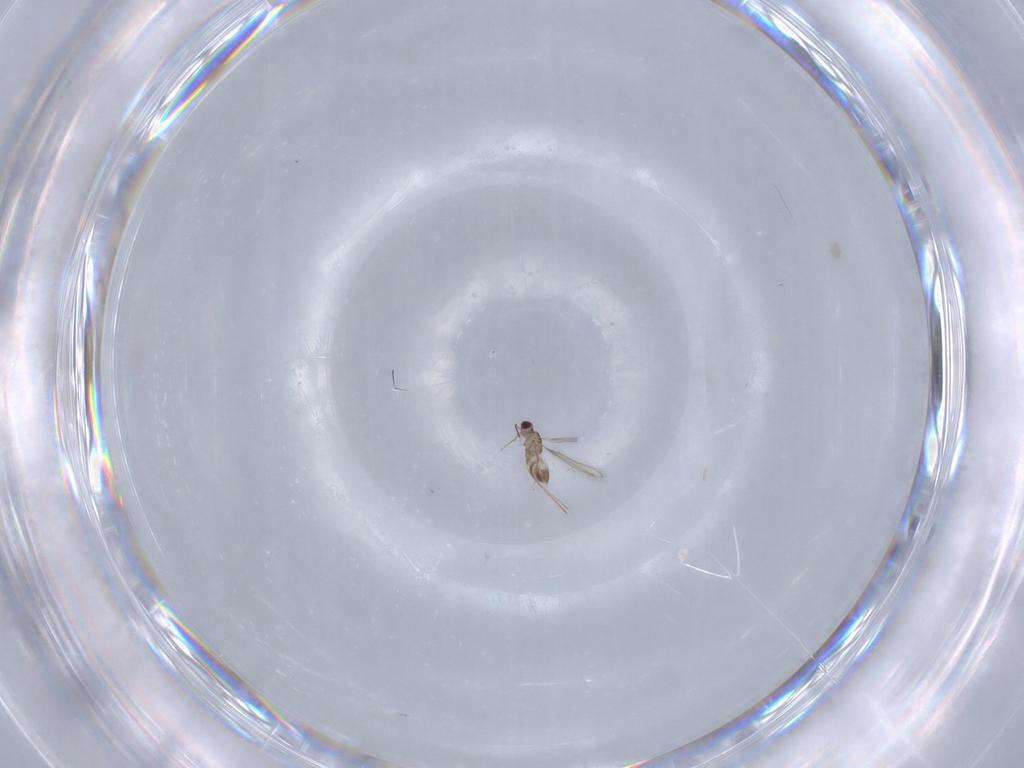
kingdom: Animalia
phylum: Arthropoda
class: Insecta
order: Hymenoptera
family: Mymaridae
